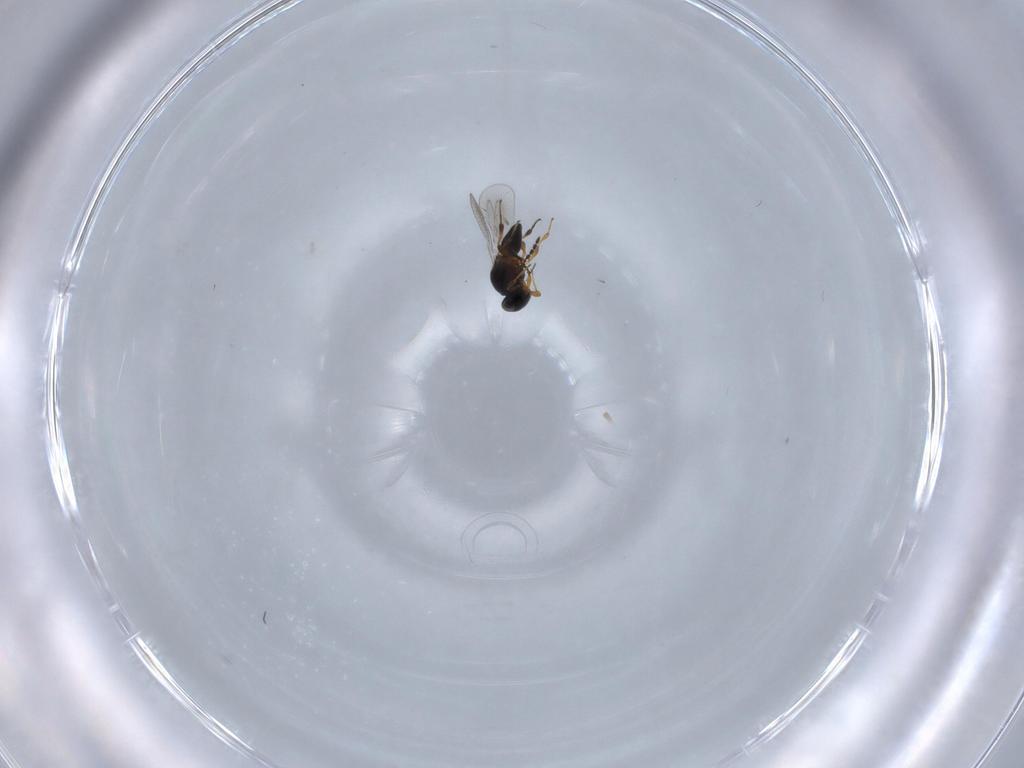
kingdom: Animalia
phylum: Arthropoda
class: Insecta
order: Hymenoptera
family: Platygastridae
